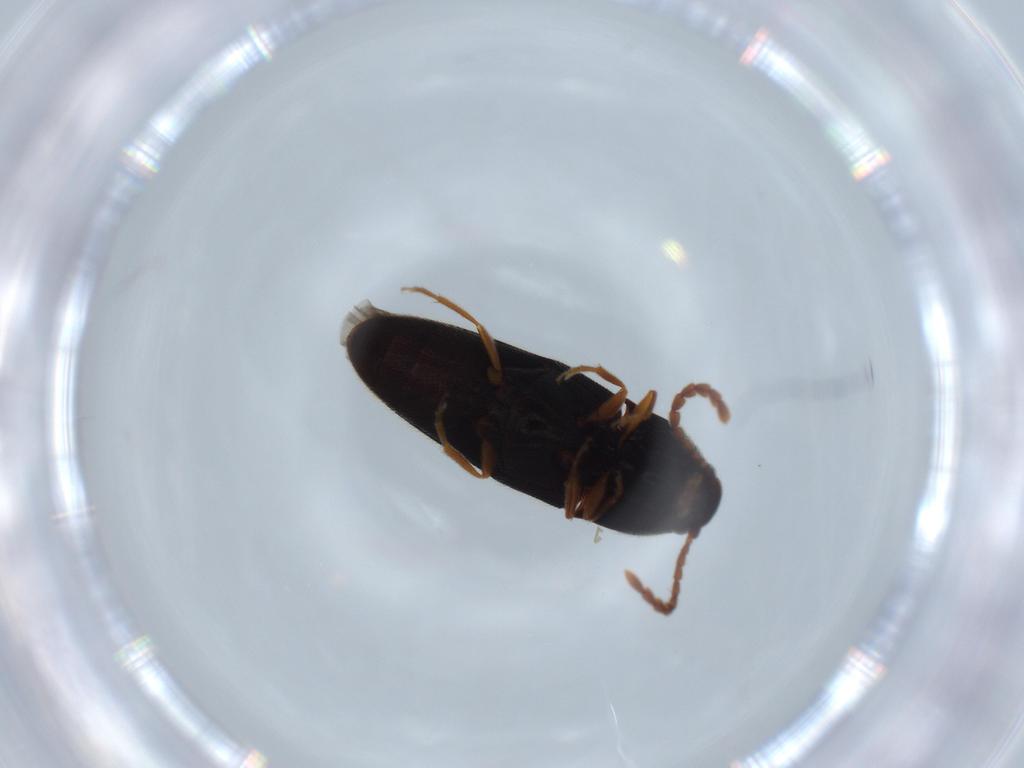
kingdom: Animalia
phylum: Arthropoda
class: Insecta
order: Coleoptera
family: Elateridae
